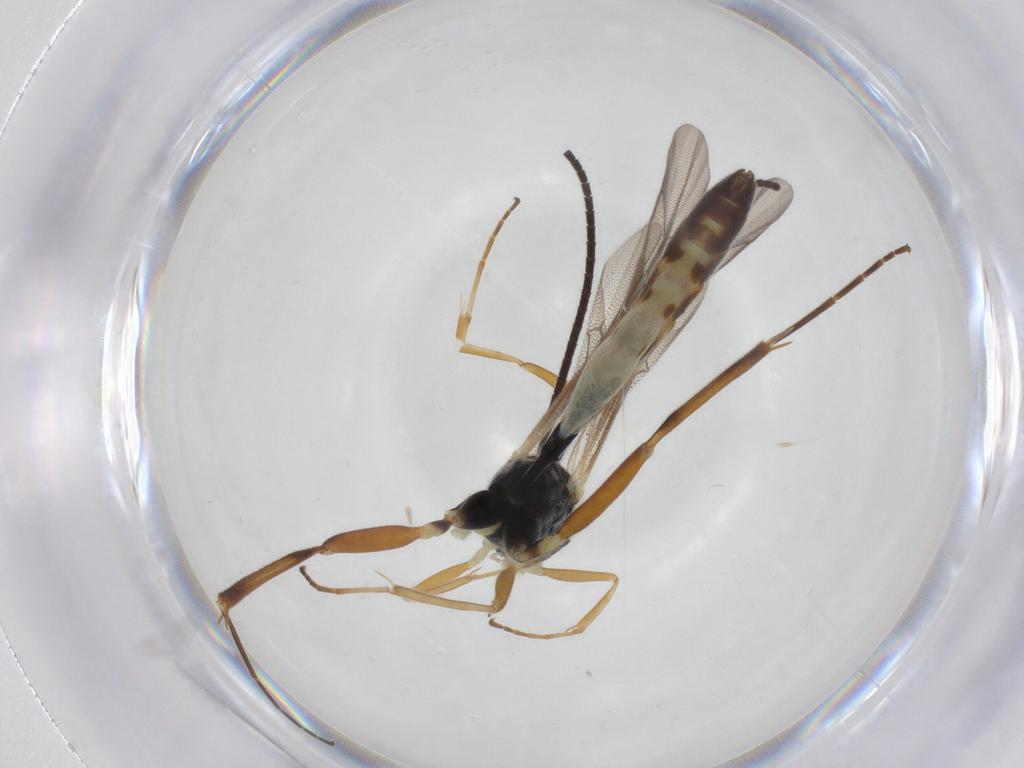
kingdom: Animalia
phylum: Arthropoda
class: Insecta
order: Hymenoptera
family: Ichneumonidae
